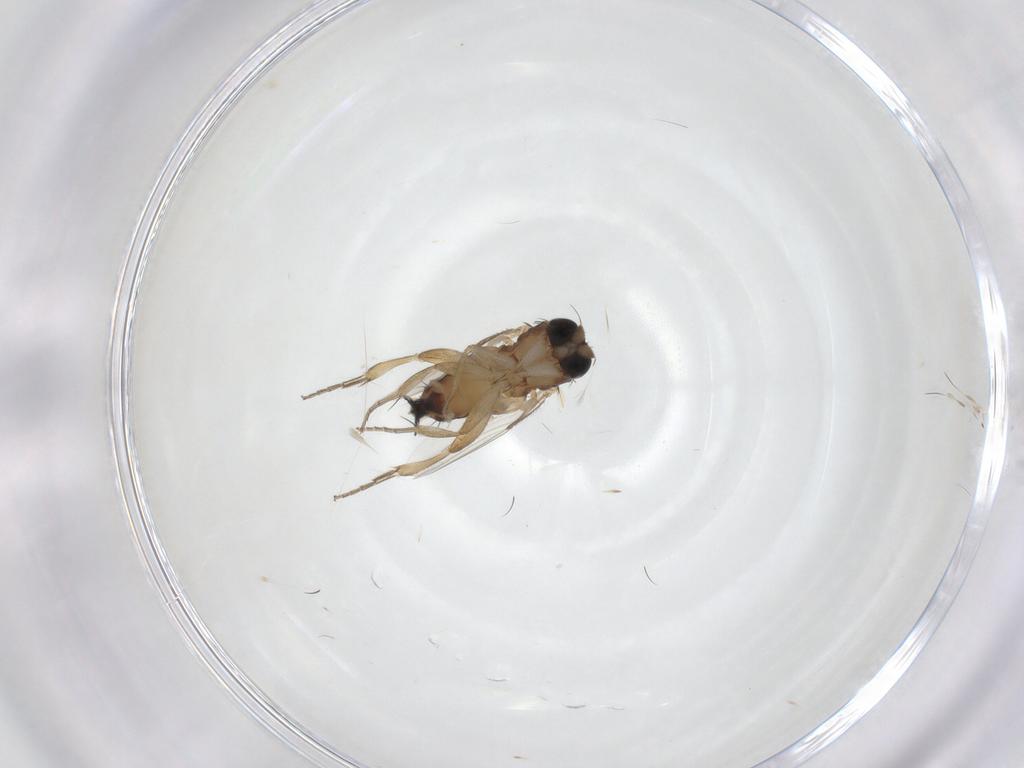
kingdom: Animalia
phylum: Arthropoda
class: Insecta
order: Diptera
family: Phoridae
